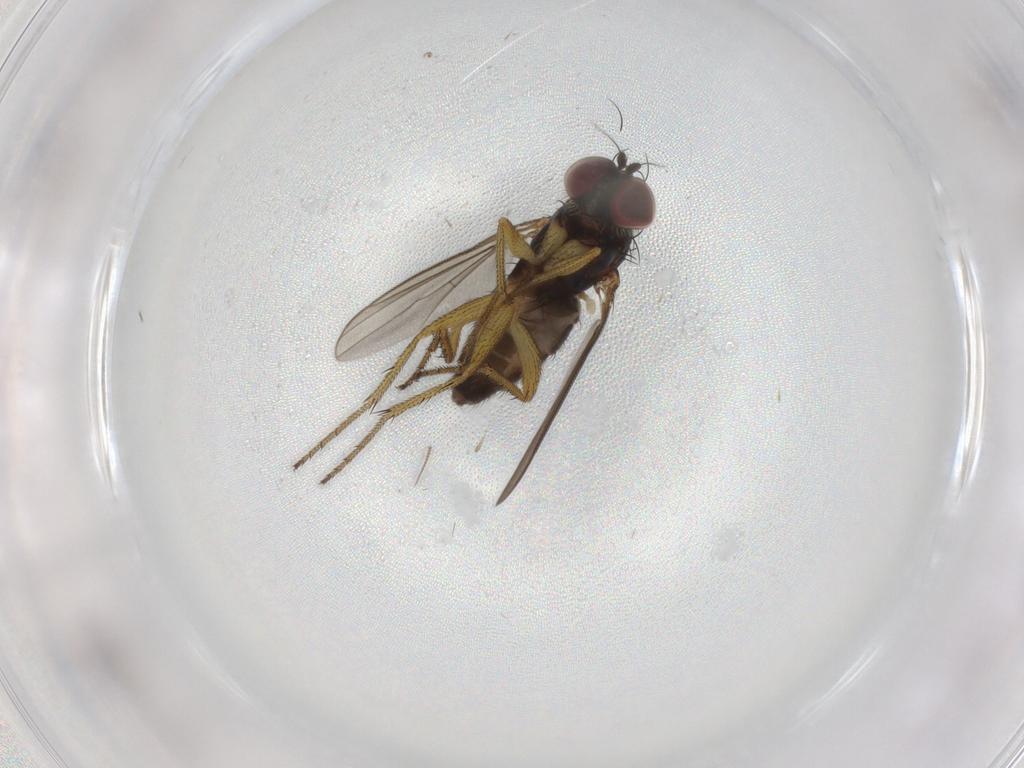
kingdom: Animalia
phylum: Arthropoda
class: Insecta
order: Diptera
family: Dolichopodidae
